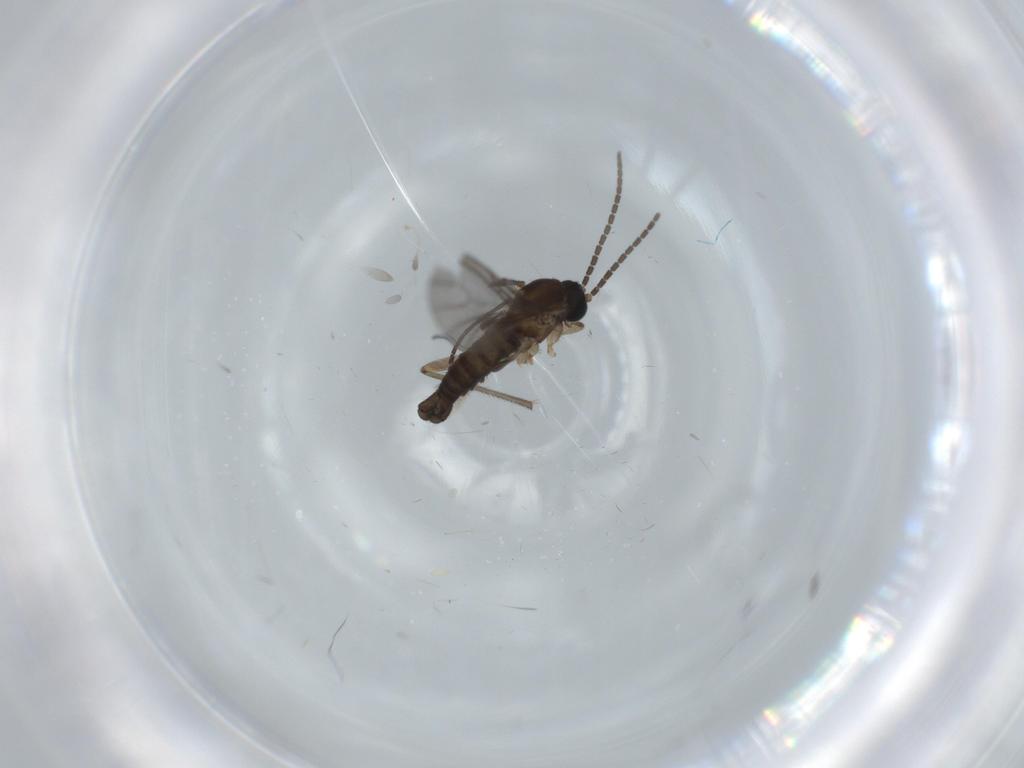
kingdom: Animalia
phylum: Arthropoda
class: Insecta
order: Diptera
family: Sciaridae
